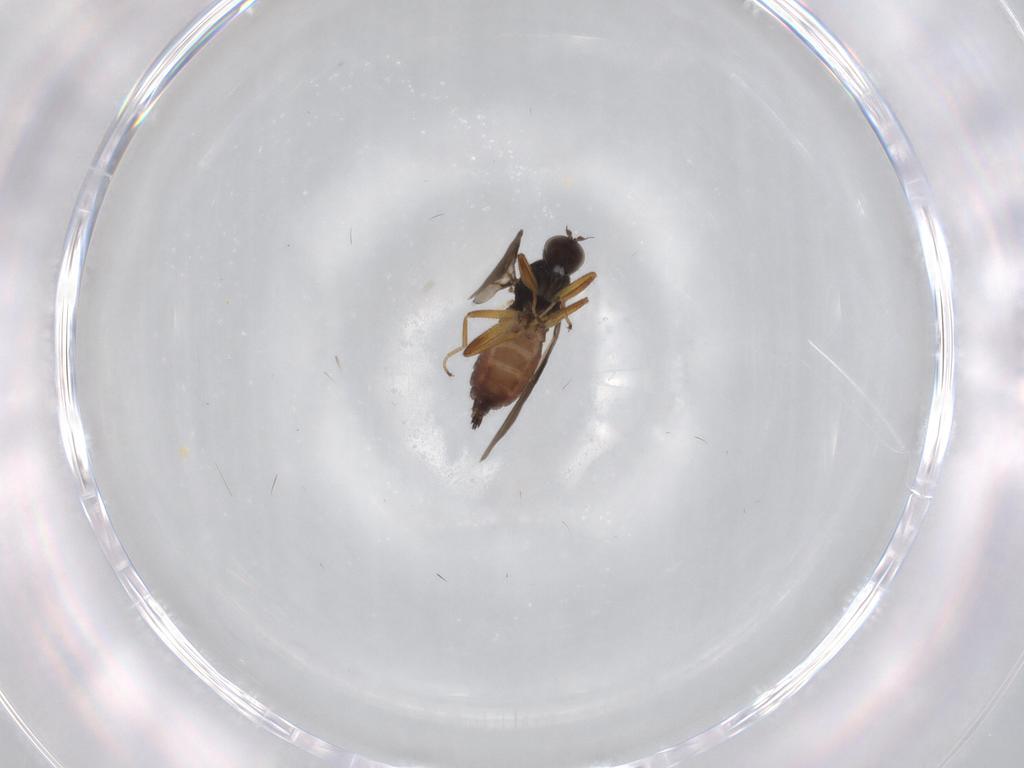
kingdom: Animalia
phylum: Arthropoda
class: Insecta
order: Diptera
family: Hybotidae
